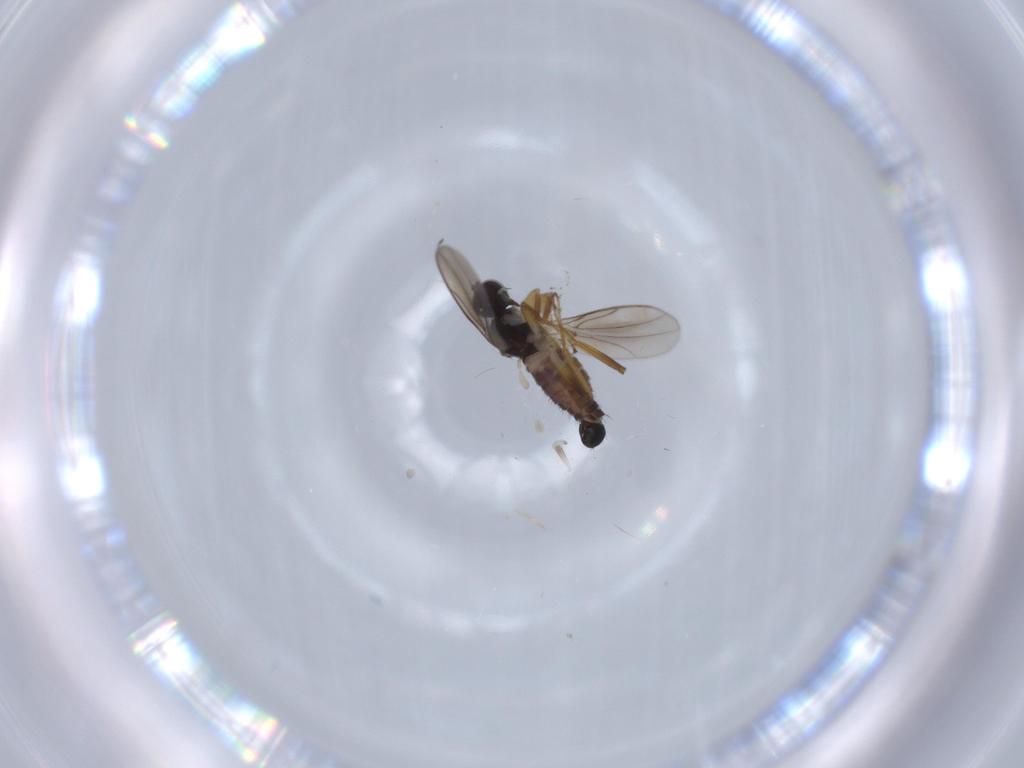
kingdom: Animalia
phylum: Arthropoda
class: Insecta
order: Diptera
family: Hybotidae
